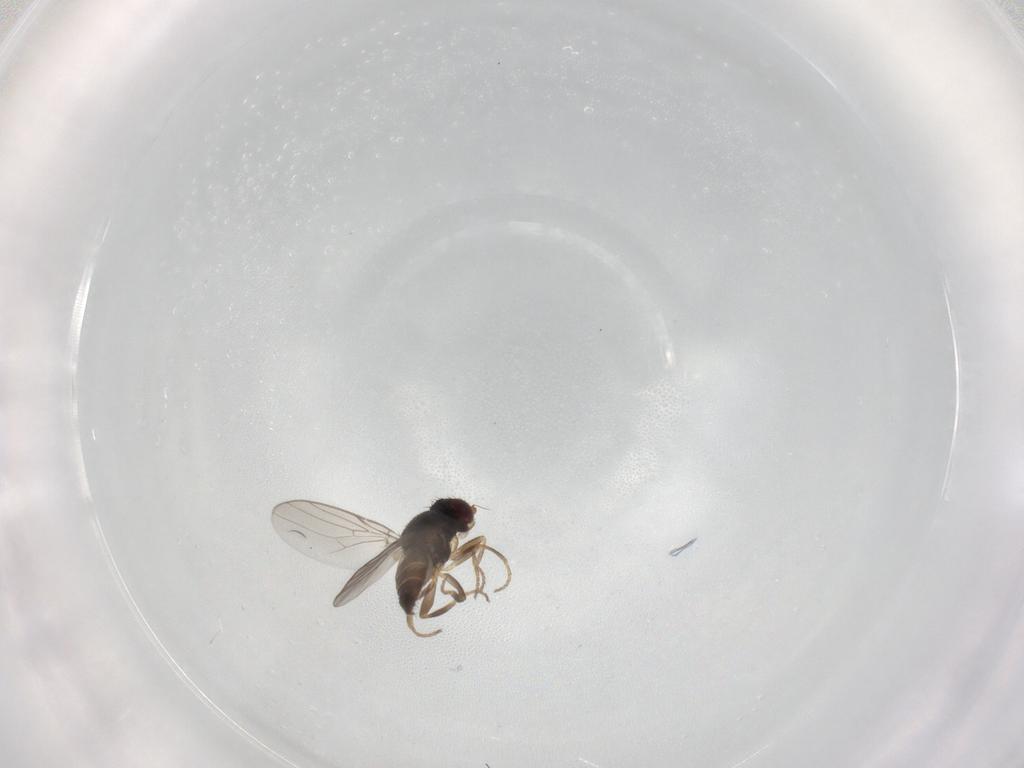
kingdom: Animalia
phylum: Arthropoda
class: Insecta
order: Diptera
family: Chloropidae
